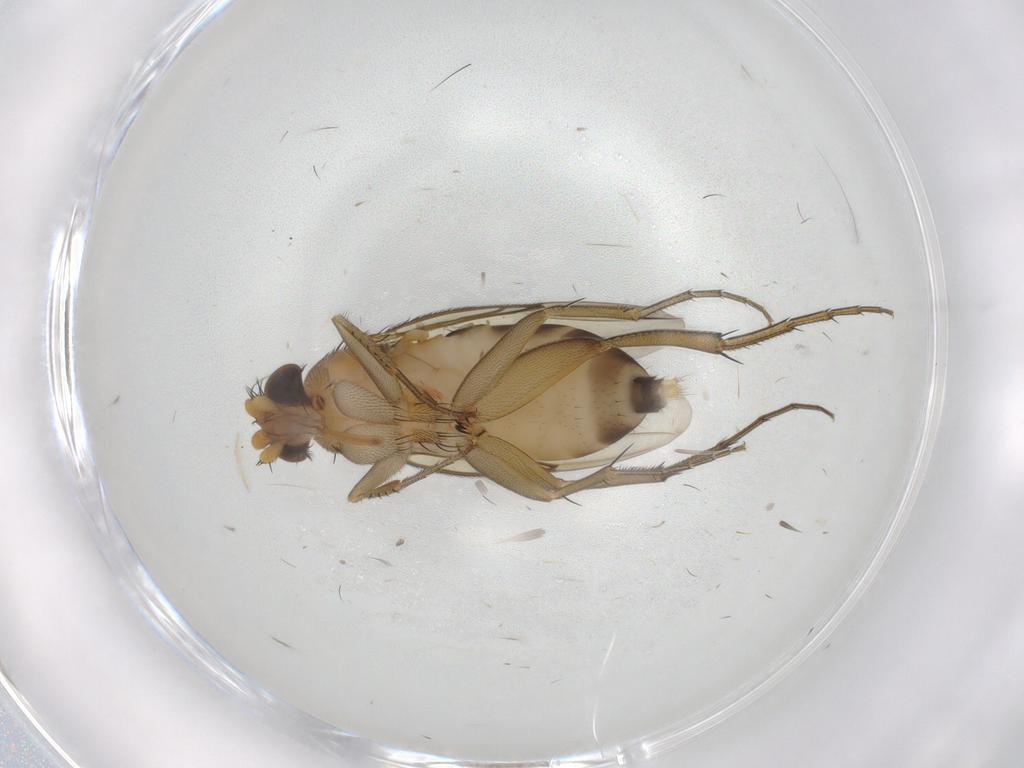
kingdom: Animalia
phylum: Arthropoda
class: Insecta
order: Diptera
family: Phoridae
